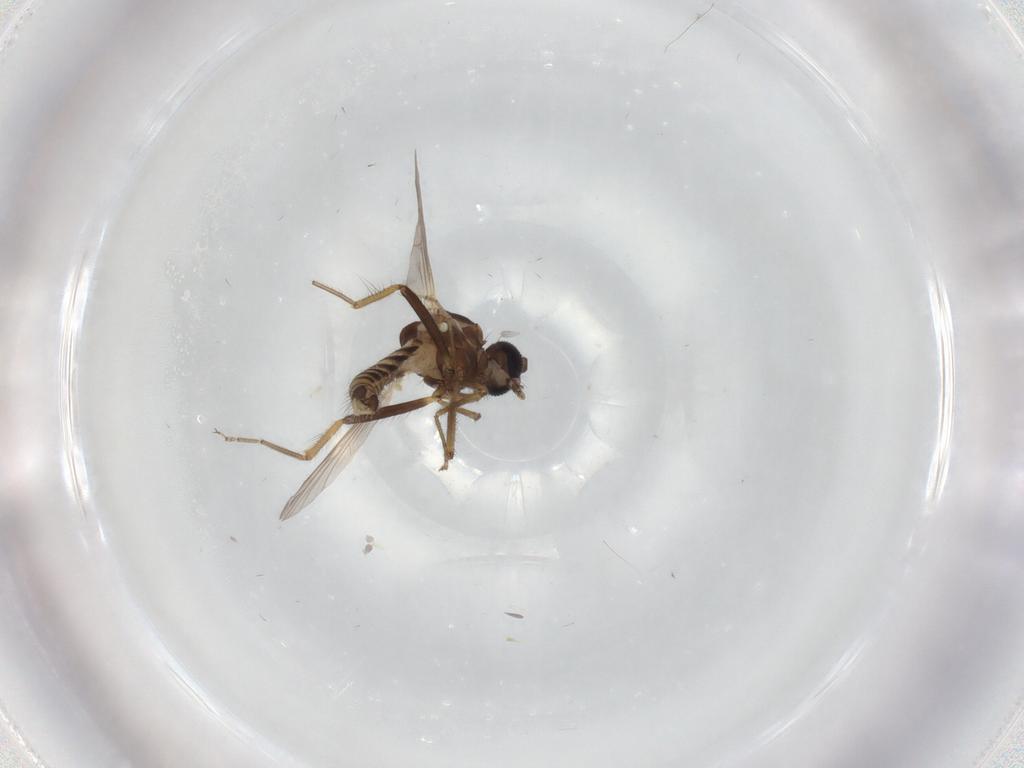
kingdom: Animalia
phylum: Arthropoda
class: Insecta
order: Diptera
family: Ceratopogonidae
